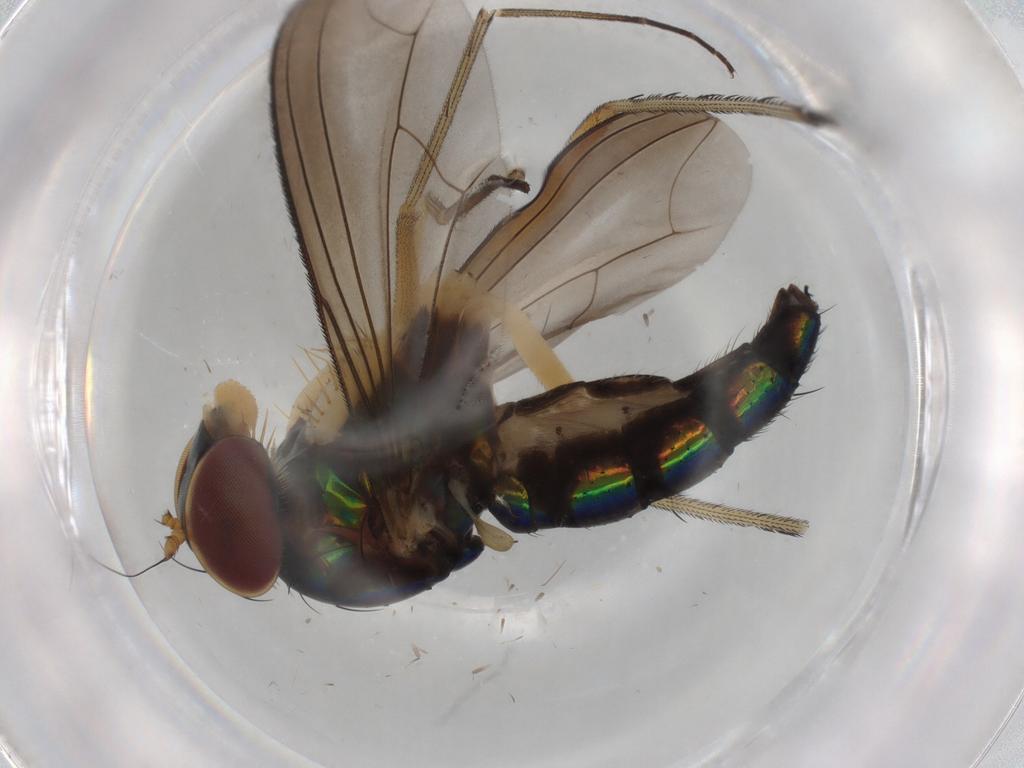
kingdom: Animalia
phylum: Arthropoda
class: Insecta
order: Diptera
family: Dolichopodidae
